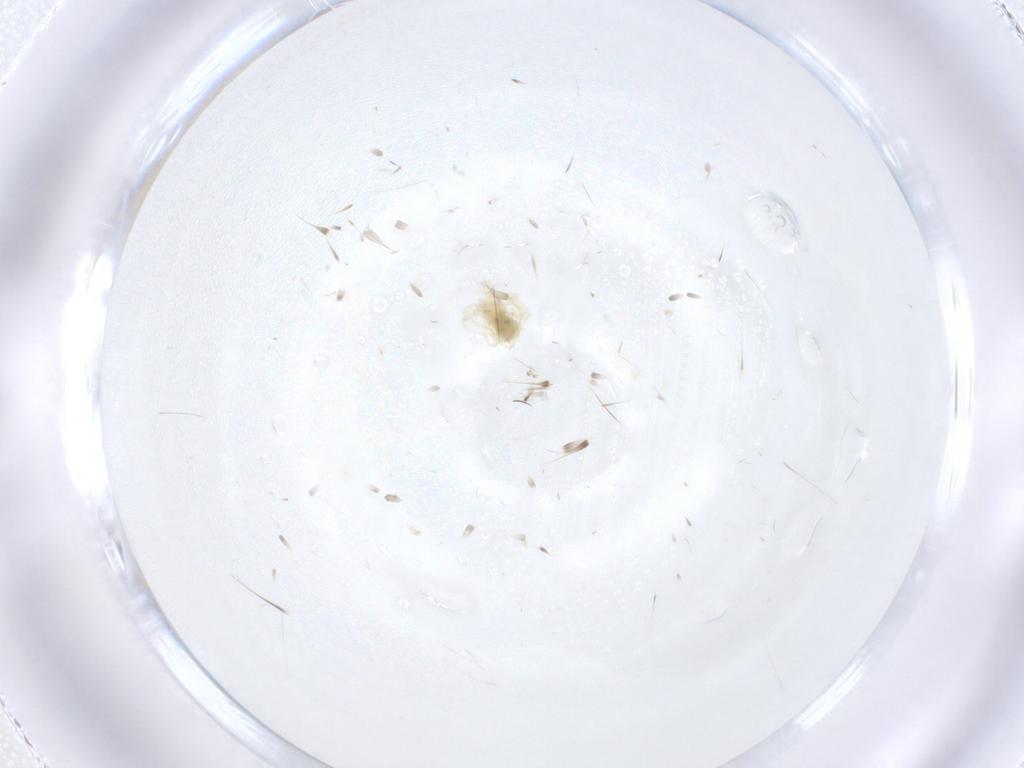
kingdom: Animalia
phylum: Arthropoda
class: Arachnida
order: Trombidiformes
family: Anystidae
